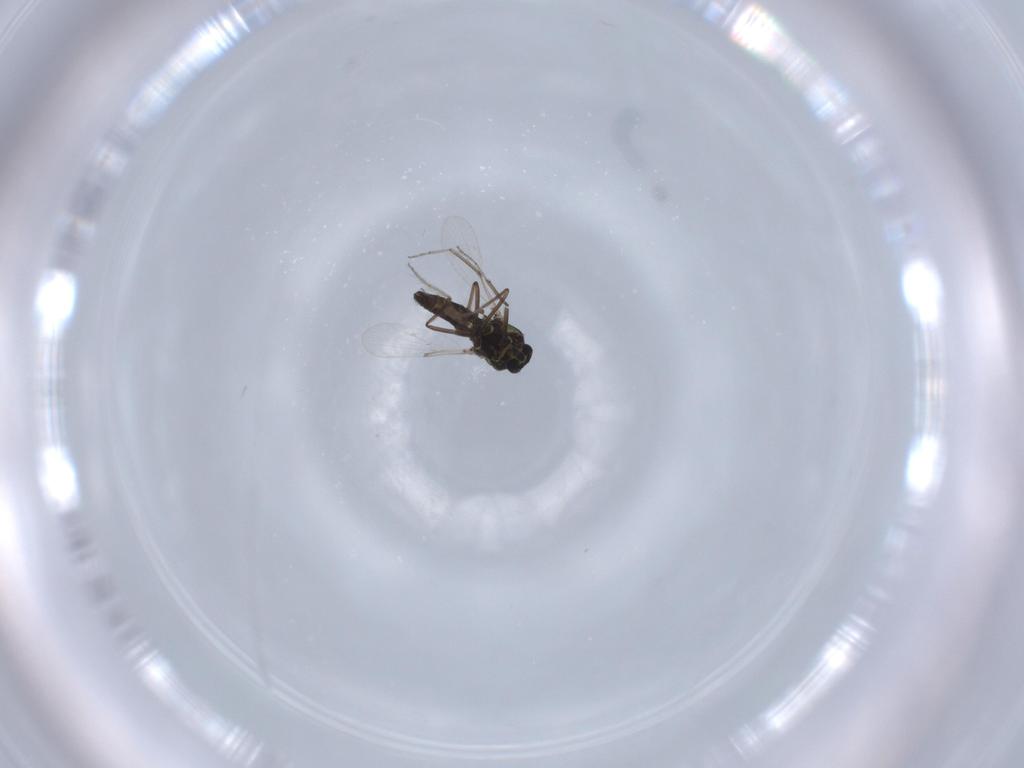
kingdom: Animalia
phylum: Arthropoda
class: Insecta
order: Diptera
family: Ceratopogonidae
